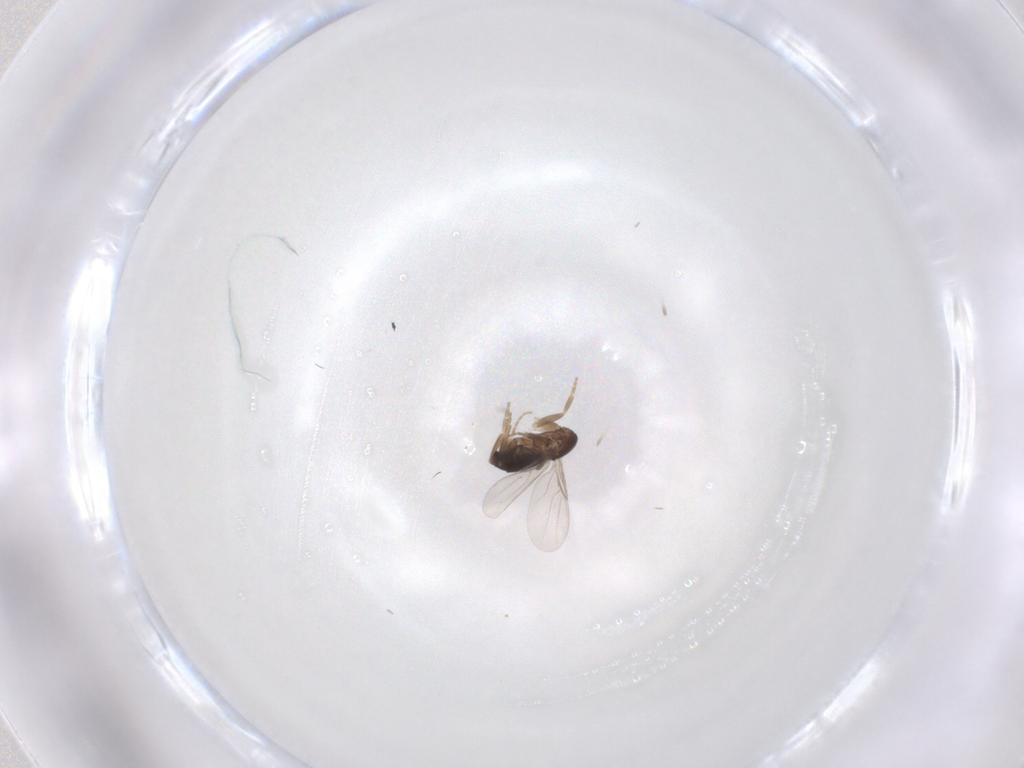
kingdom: Animalia
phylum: Arthropoda
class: Insecta
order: Diptera
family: Phoridae
